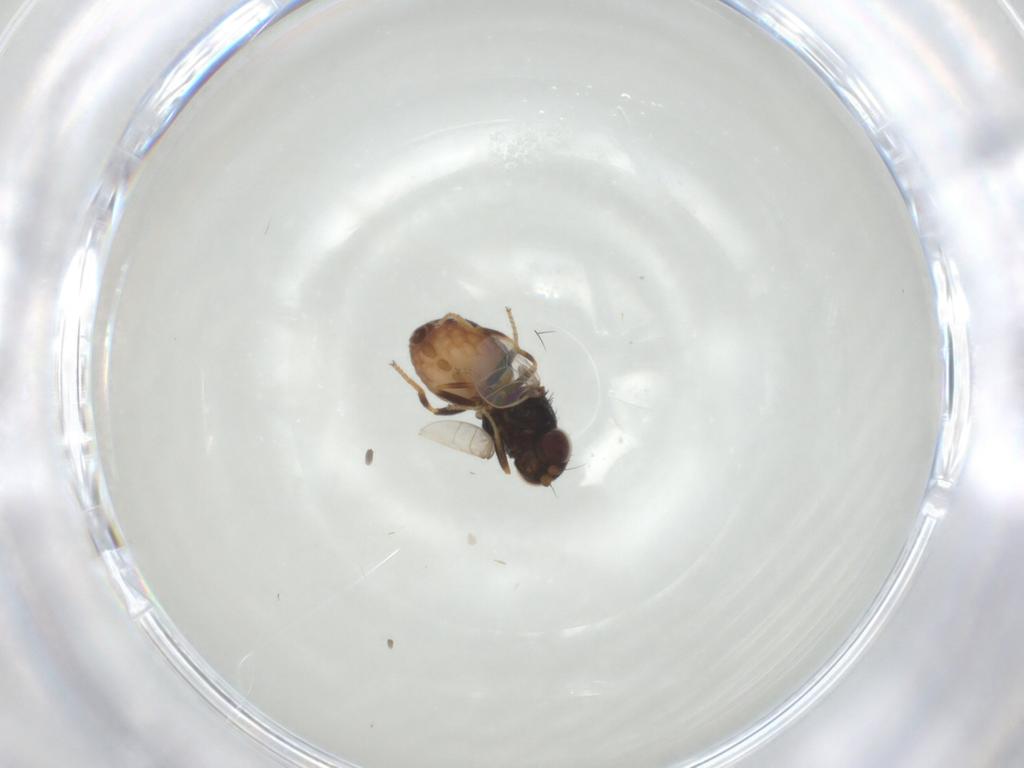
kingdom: Animalia
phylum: Arthropoda
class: Insecta
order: Diptera
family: Chloropidae
